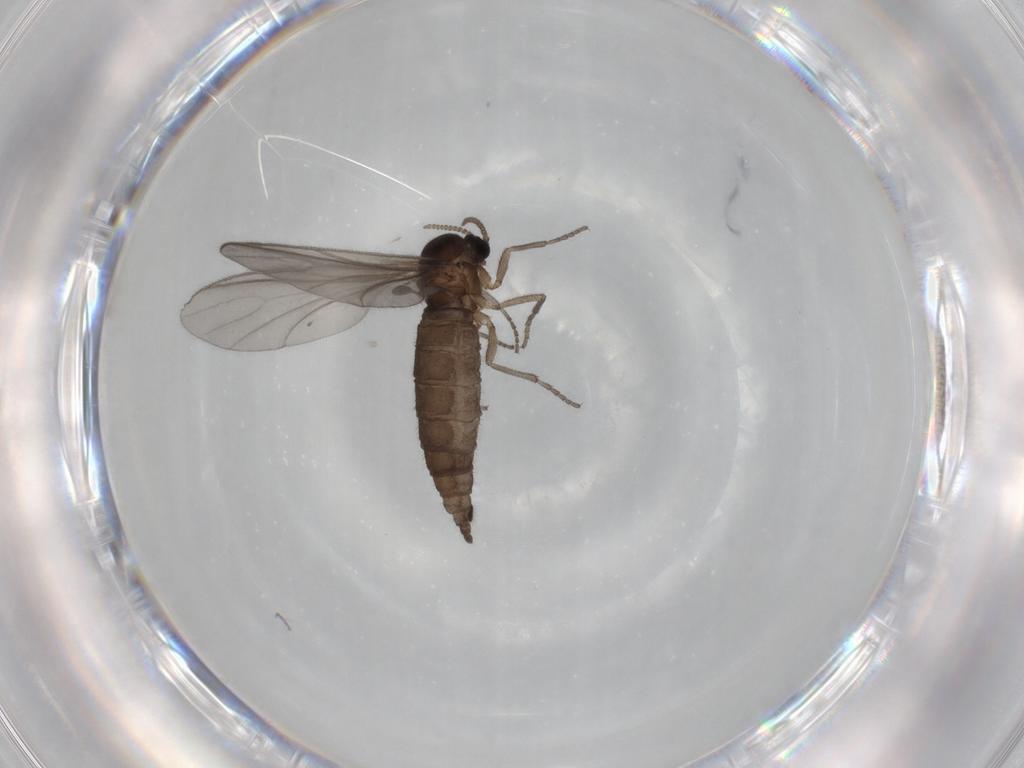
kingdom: Animalia
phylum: Arthropoda
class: Insecta
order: Diptera
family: Sciaridae
